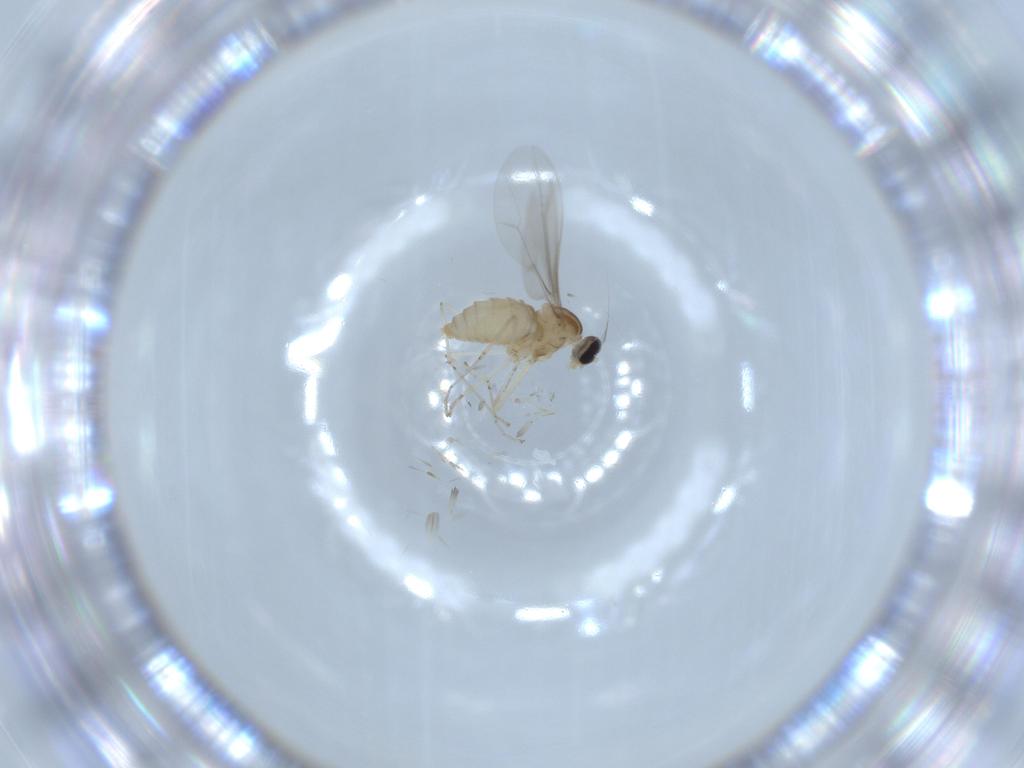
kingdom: Animalia
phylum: Arthropoda
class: Insecta
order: Diptera
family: Cecidomyiidae
